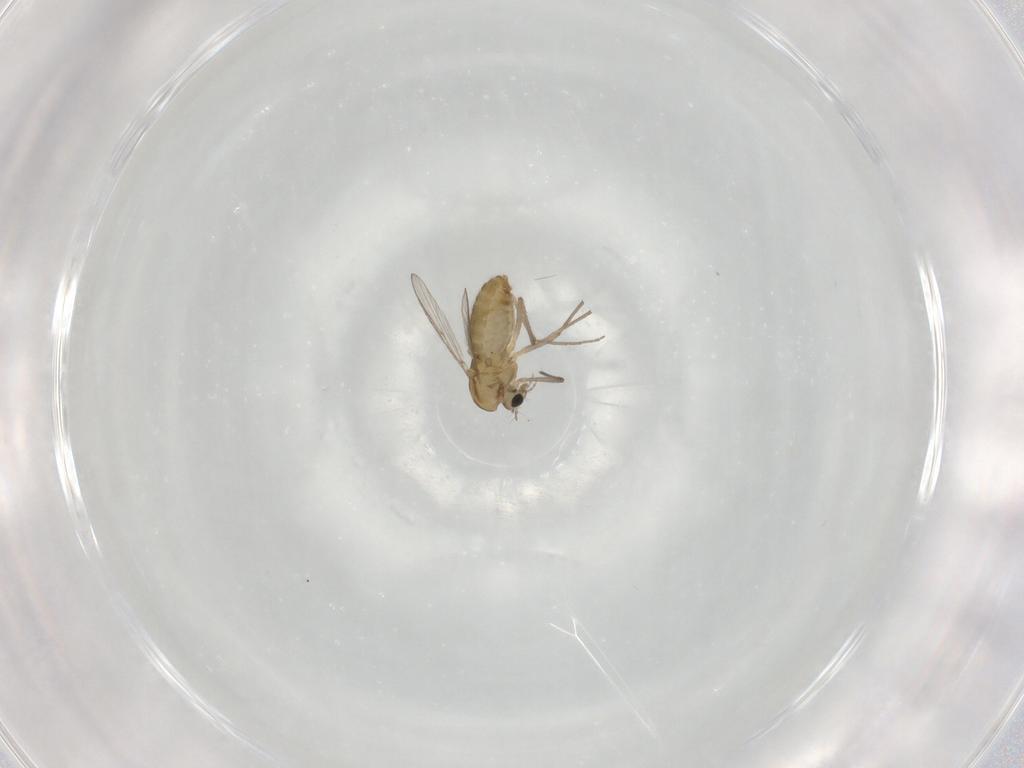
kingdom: Animalia
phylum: Arthropoda
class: Insecta
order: Diptera
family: Chironomidae
